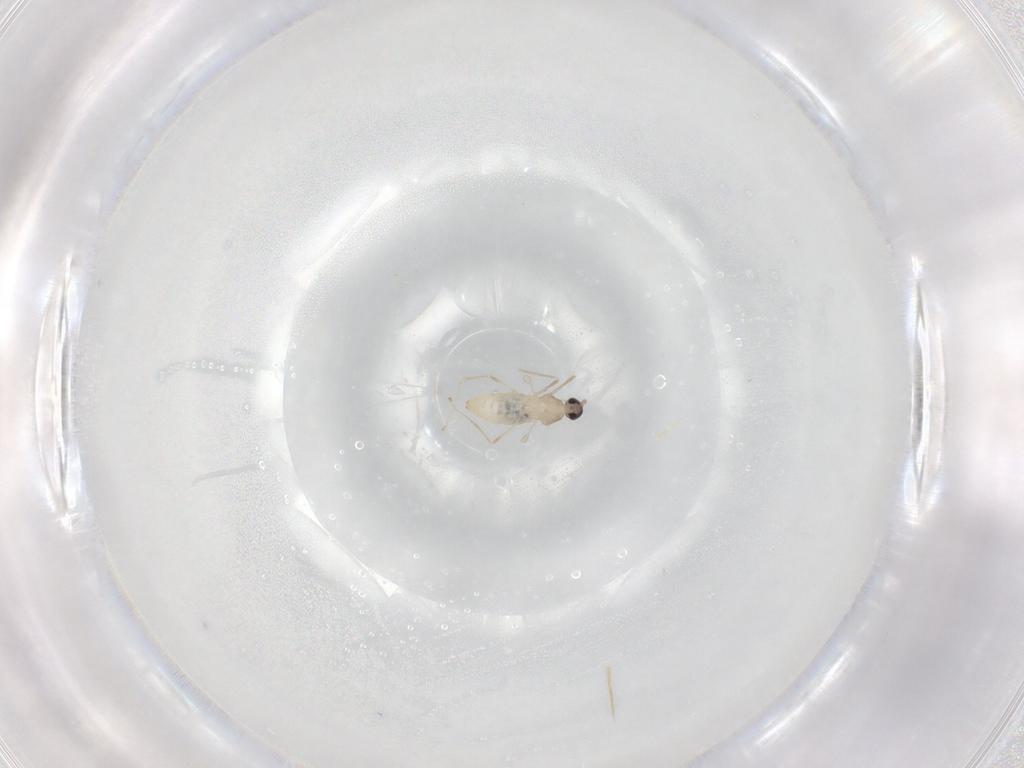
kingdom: Animalia
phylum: Arthropoda
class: Insecta
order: Diptera
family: Cecidomyiidae
